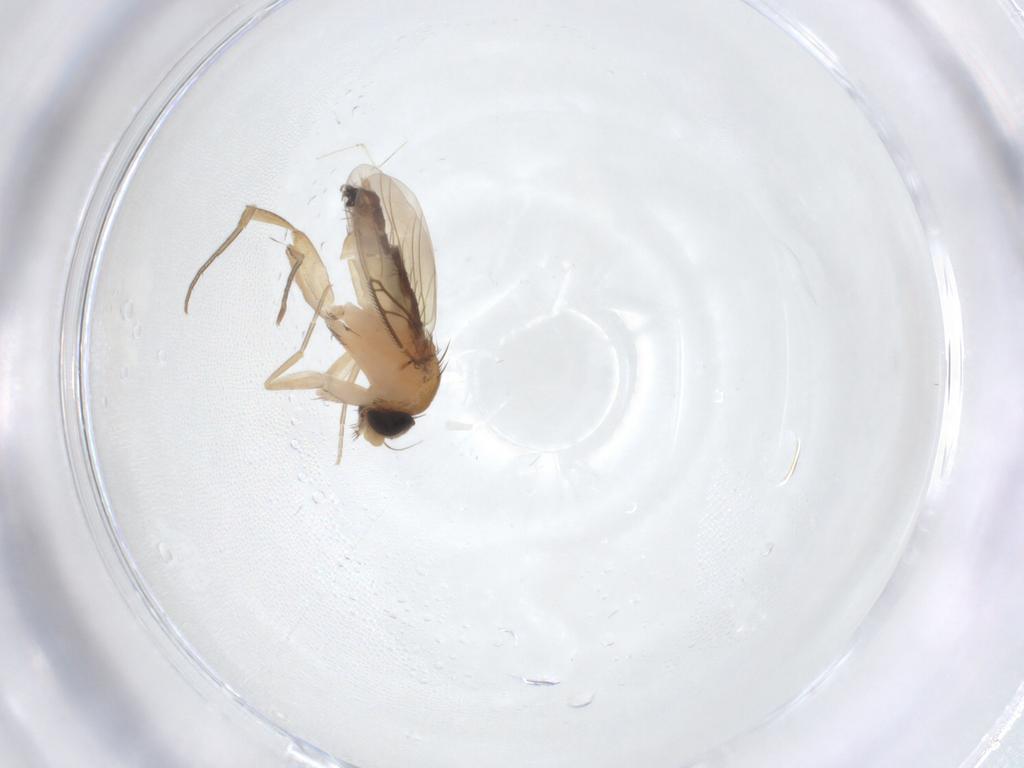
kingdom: Animalia
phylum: Arthropoda
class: Insecta
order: Diptera
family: Phoridae
